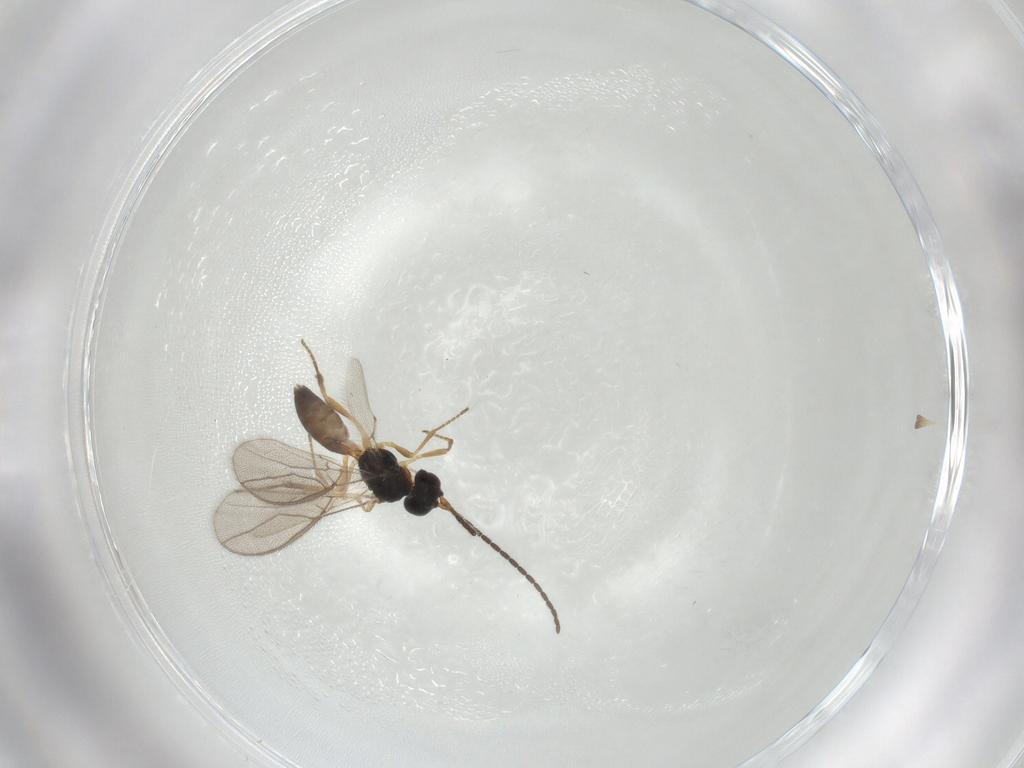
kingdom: Animalia
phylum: Arthropoda
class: Insecta
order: Hymenoptera
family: Braconidae
